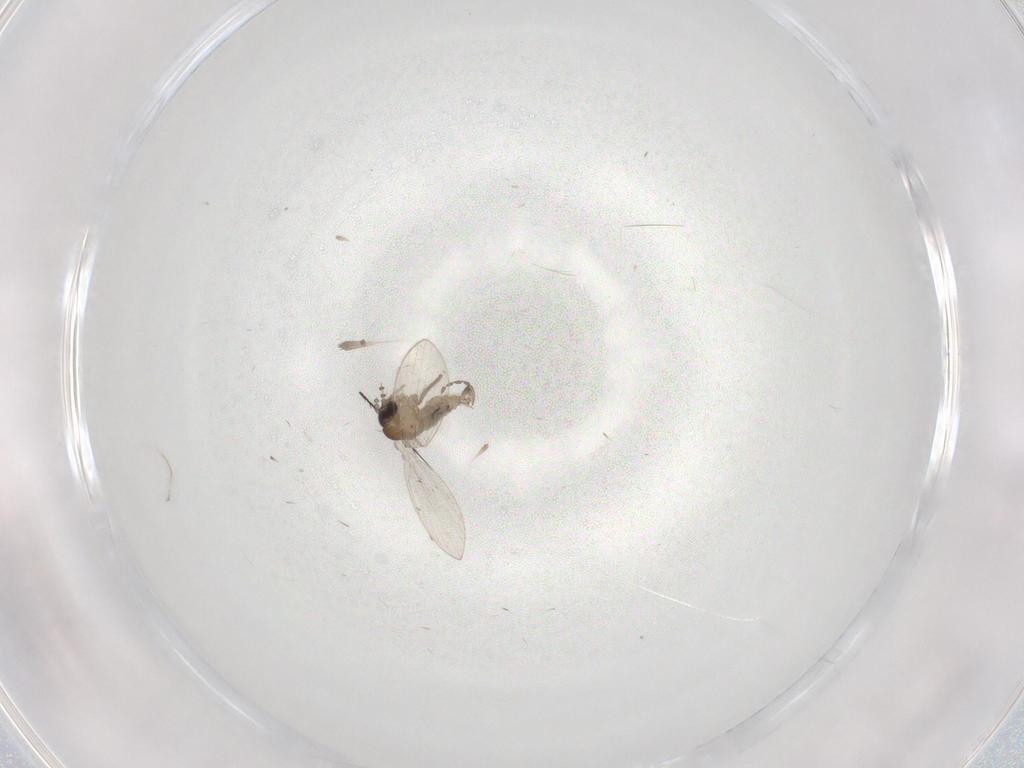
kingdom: Animalia
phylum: Arthropoda
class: Insecta
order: Diptera
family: Psychodidae
